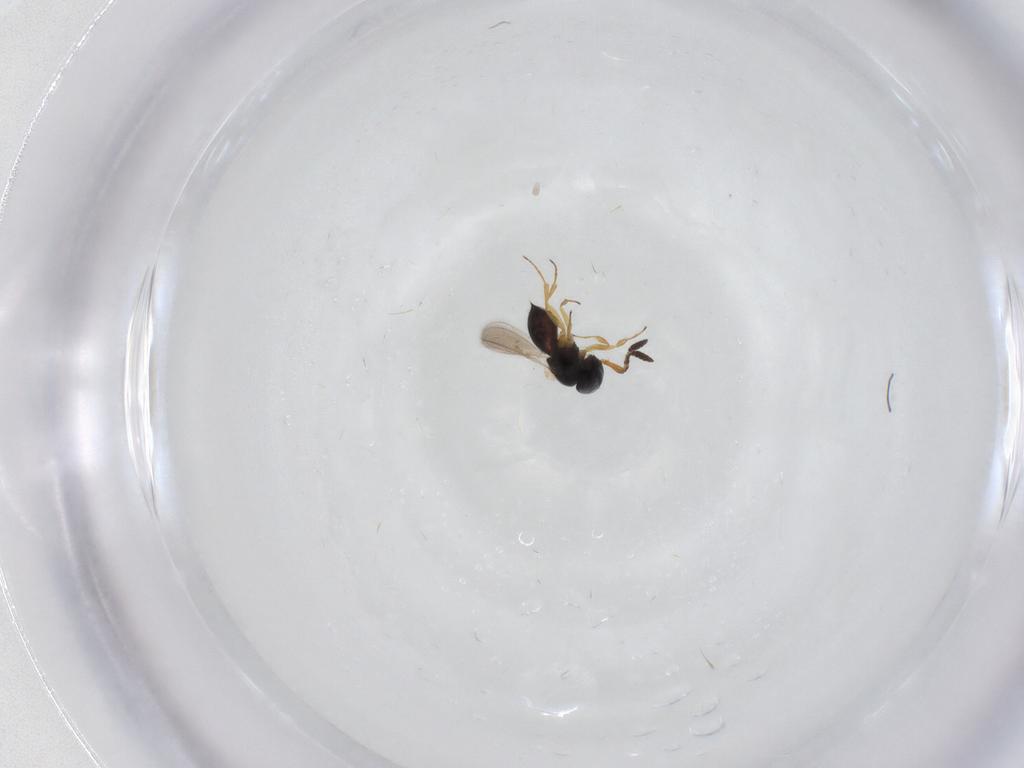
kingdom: Animalia
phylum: Arthropoda
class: Insecta
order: Hymenoptera
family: Scelionidae
